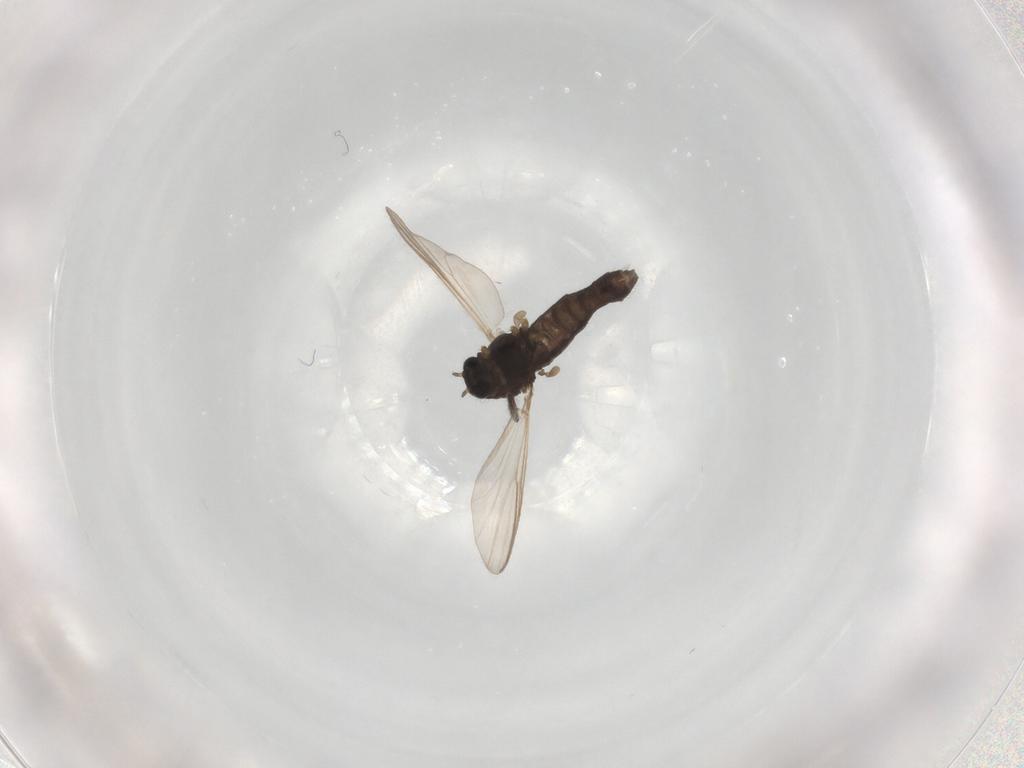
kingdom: Animalia
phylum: Arthropoda
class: Insecta
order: Diptera
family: Chironomidae
